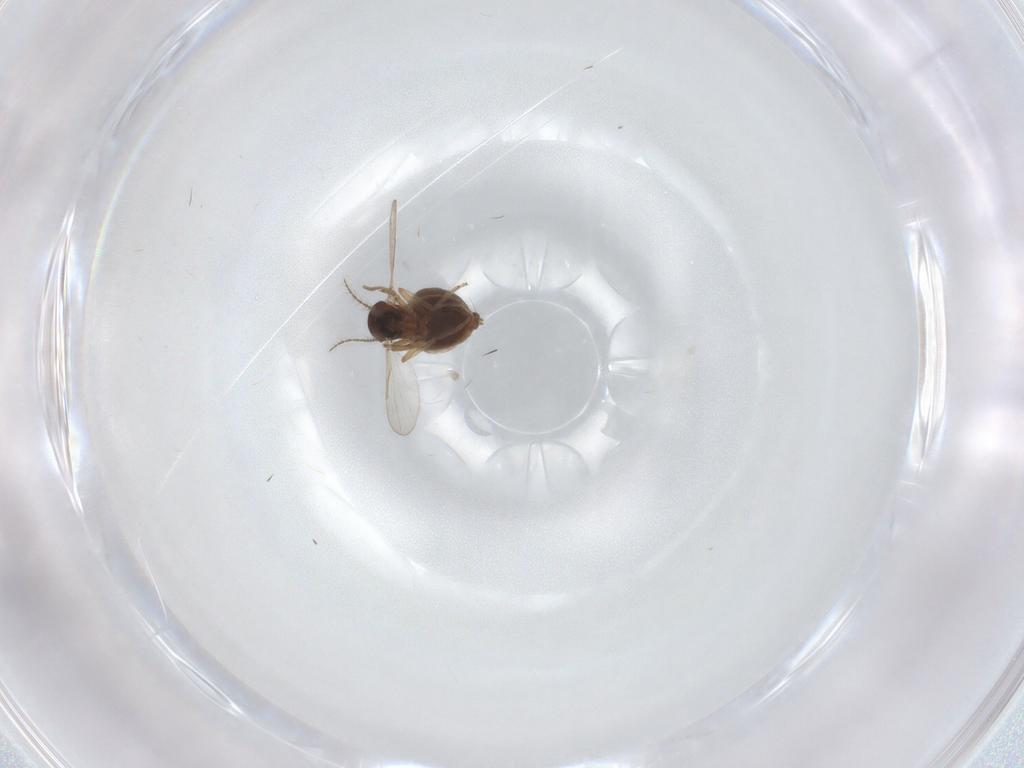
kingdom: Animalia
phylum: Arthropoda
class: Insecta
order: Diptera
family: Ceratopogonidae
